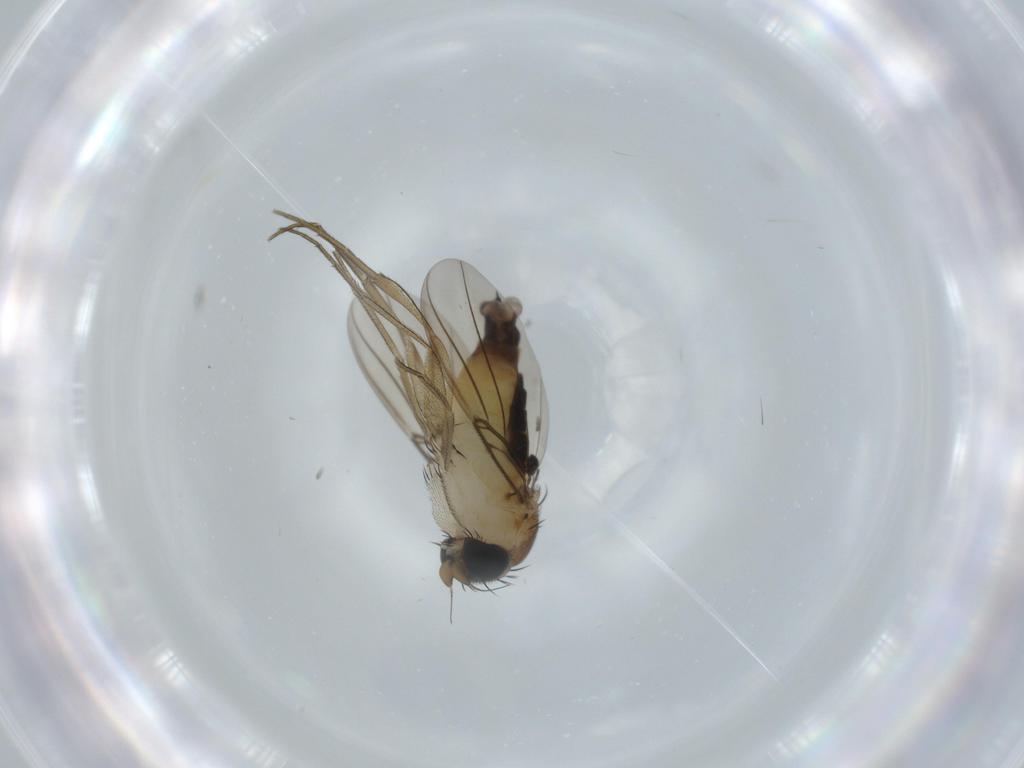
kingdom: Animalia
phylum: Arthropoda
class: Insecta
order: Diptera
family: Phoridae
